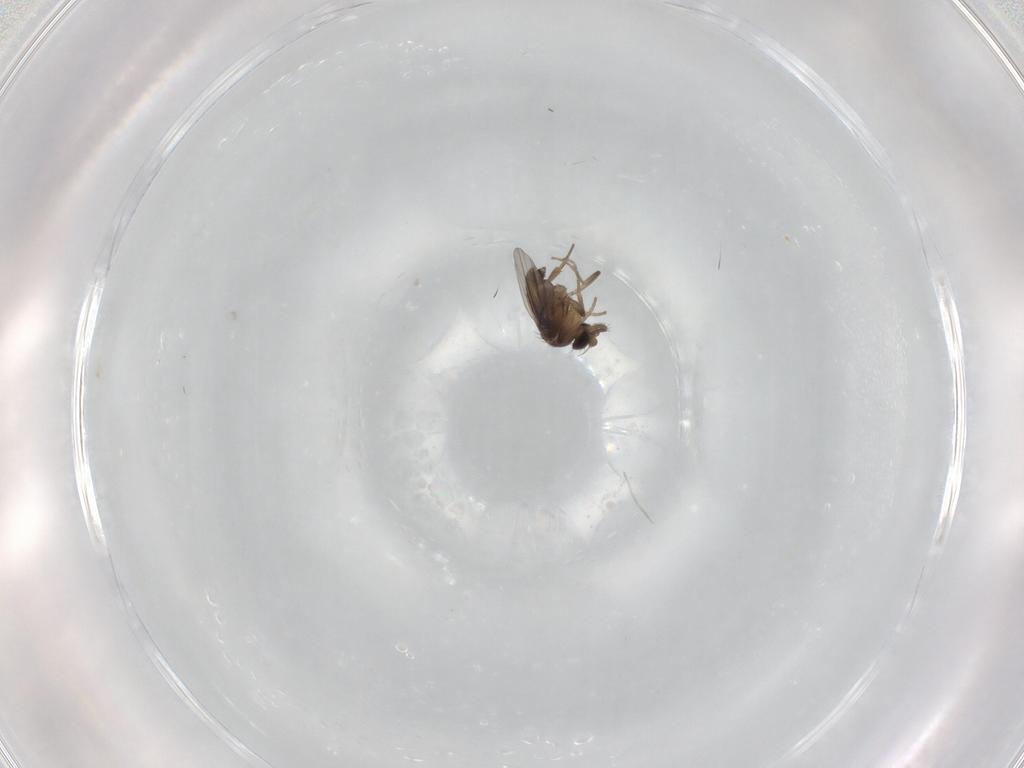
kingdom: Animalia
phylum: Arthropoda
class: Insecta
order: Diptera
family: Phoridae
